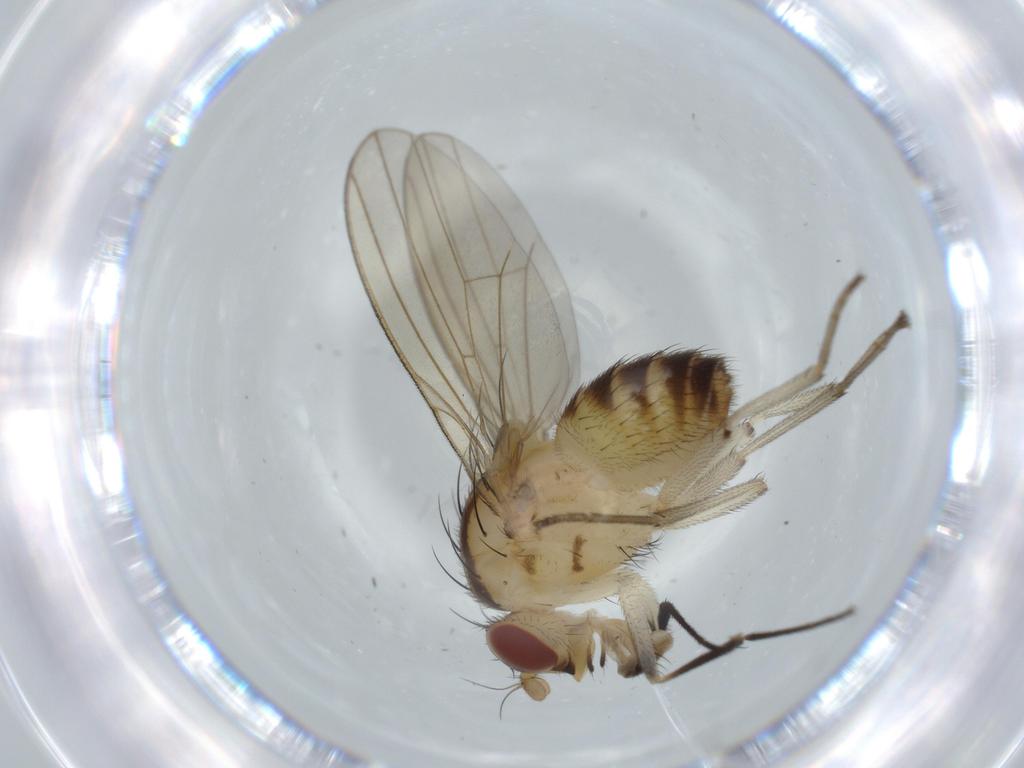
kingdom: Animalia
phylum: Arthropoda
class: Insecta
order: Diptera
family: Lauxaniidae
